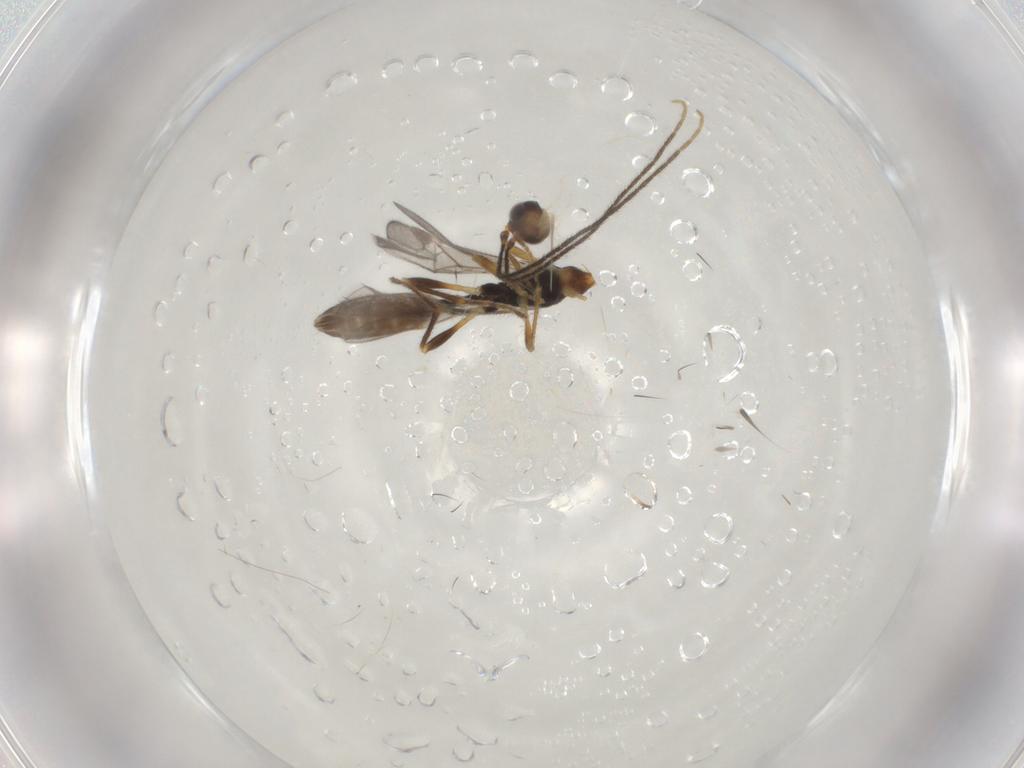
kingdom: Animalia
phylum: Arthropoda
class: Insecta
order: Hymenoptera
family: Braconidae
